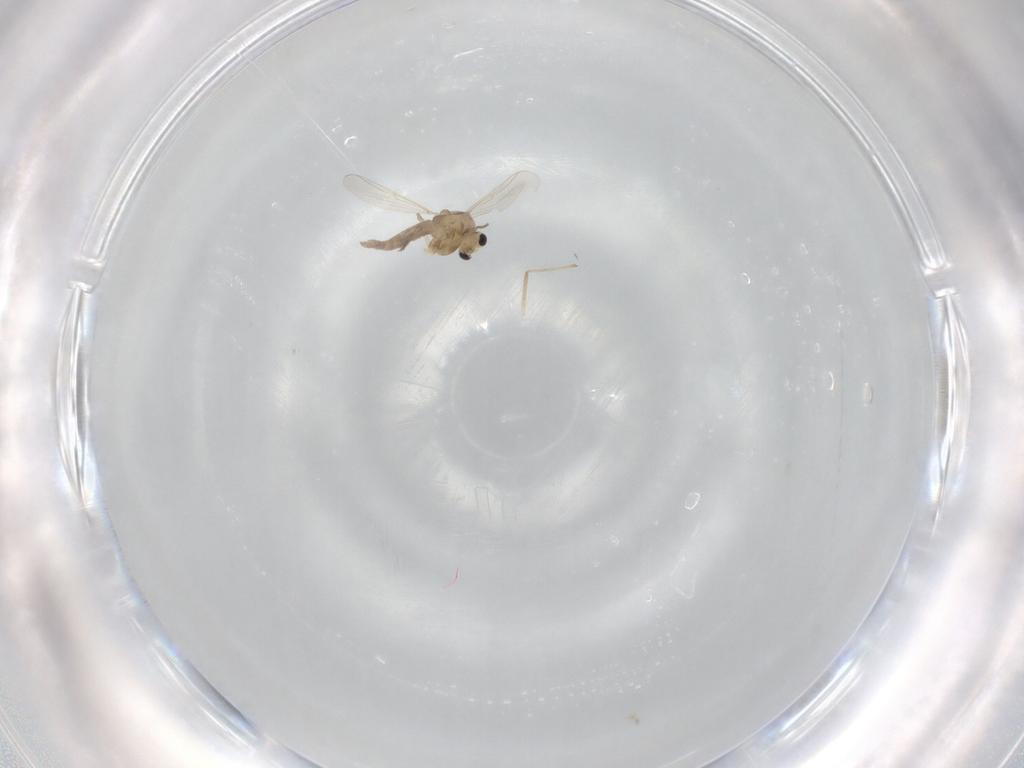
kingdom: Animalia
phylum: Arthropoda
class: Insecta
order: Diptera
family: Chironomidae
